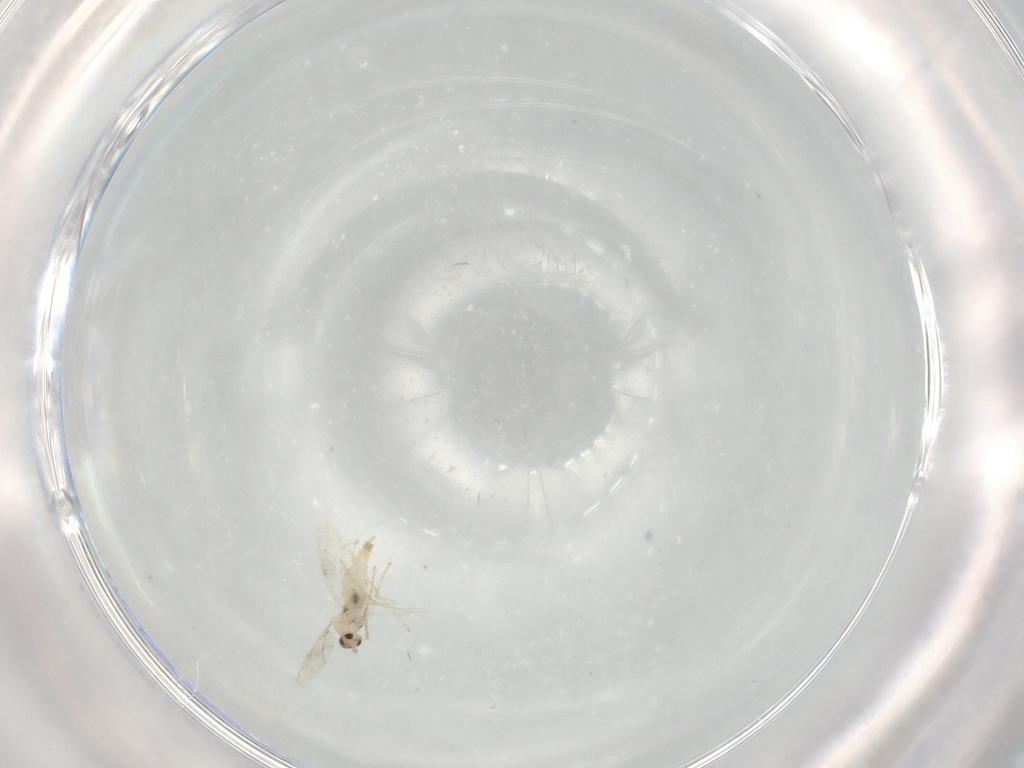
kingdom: Animalia
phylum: Arthropoda
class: Insecta
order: Diptera
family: Cecidomyiidae
